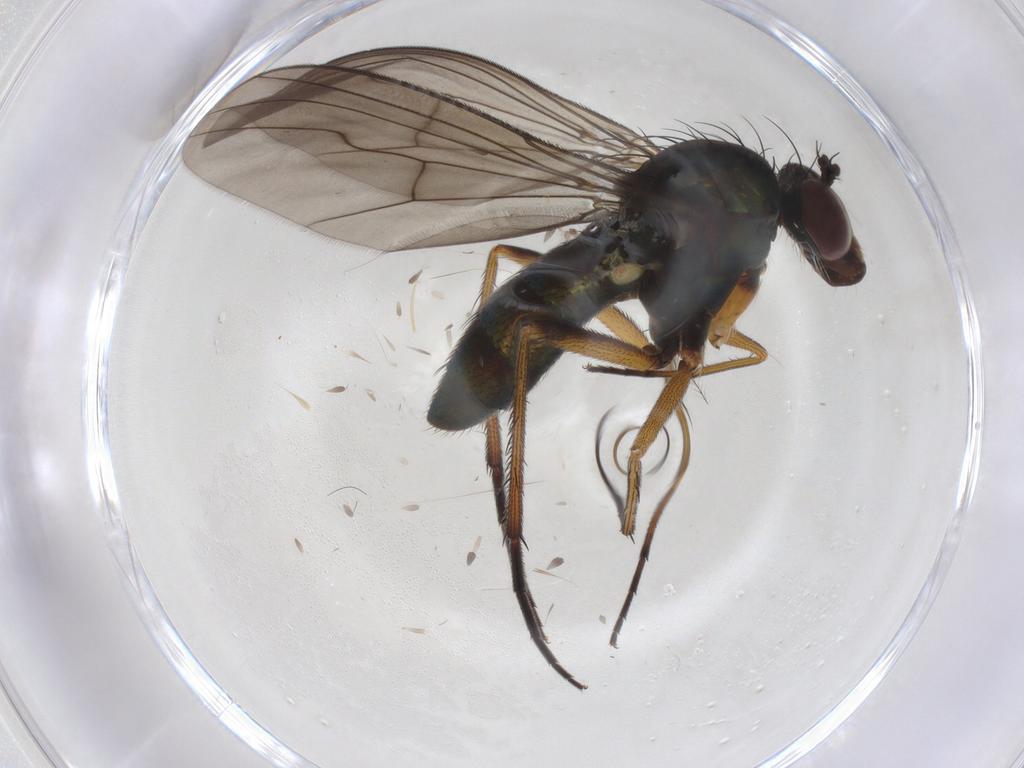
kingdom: Animalia
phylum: Arthropoda
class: Insecta
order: Diptera
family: Dolichopodidae
